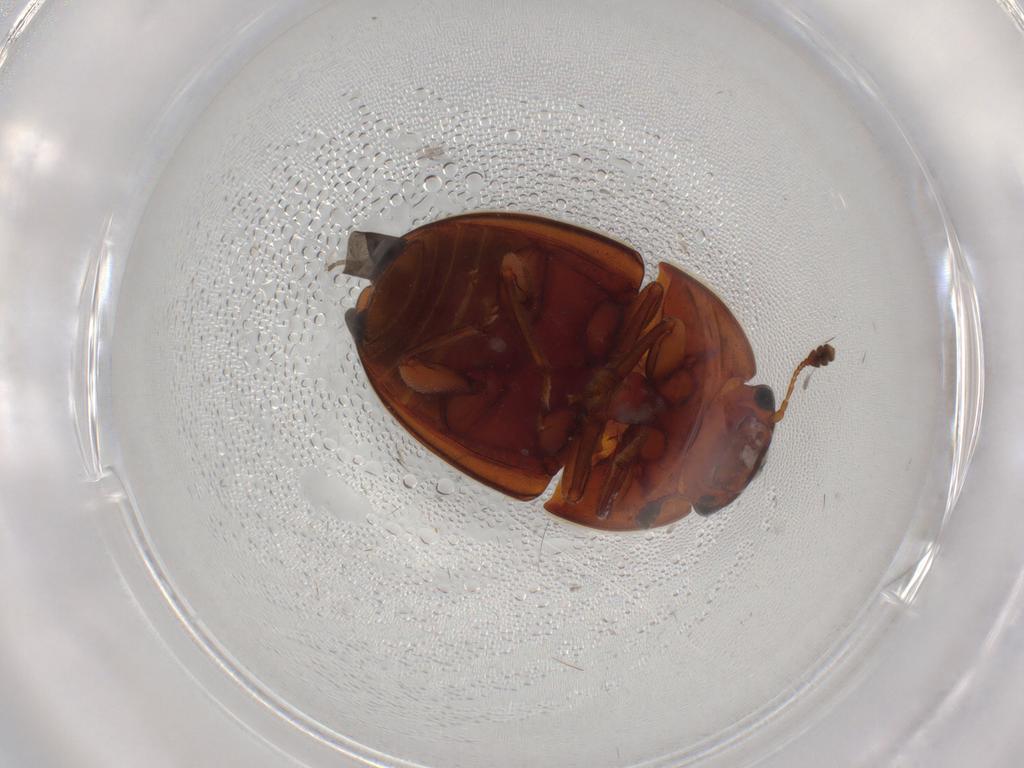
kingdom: Animalia
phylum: Arthropoda
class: Insecta
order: Coleoptera
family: Nitidulidae
